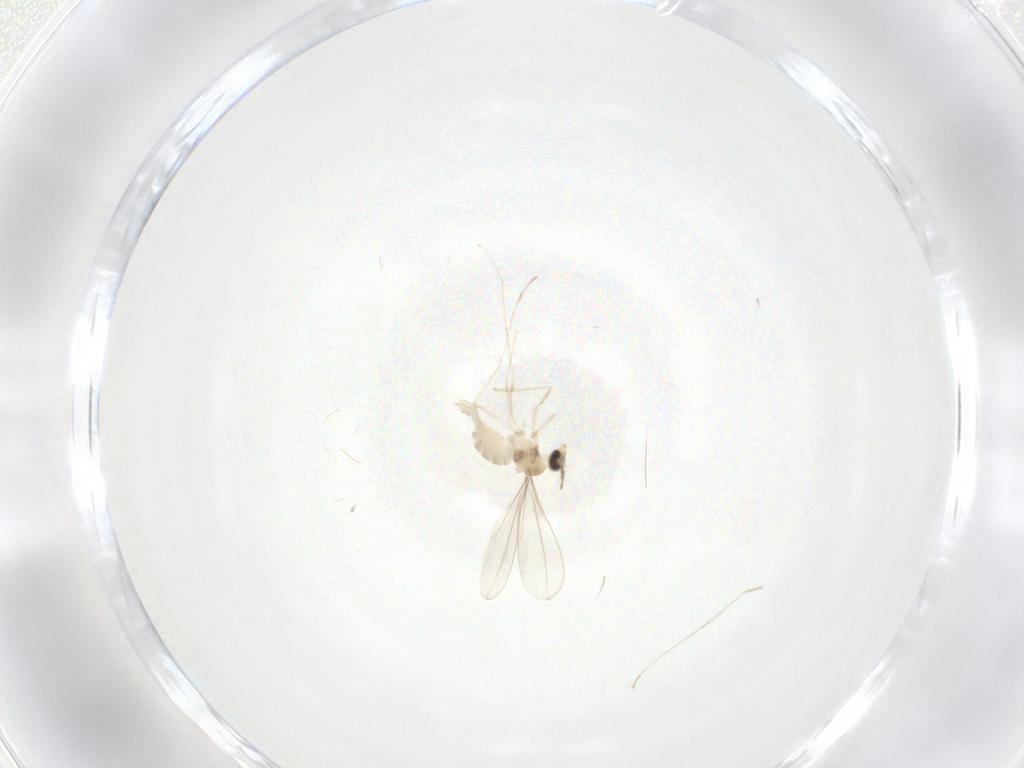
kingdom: Animalia
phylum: Arthropoda
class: Insecta
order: Diptera
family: Cecidomyiidae
